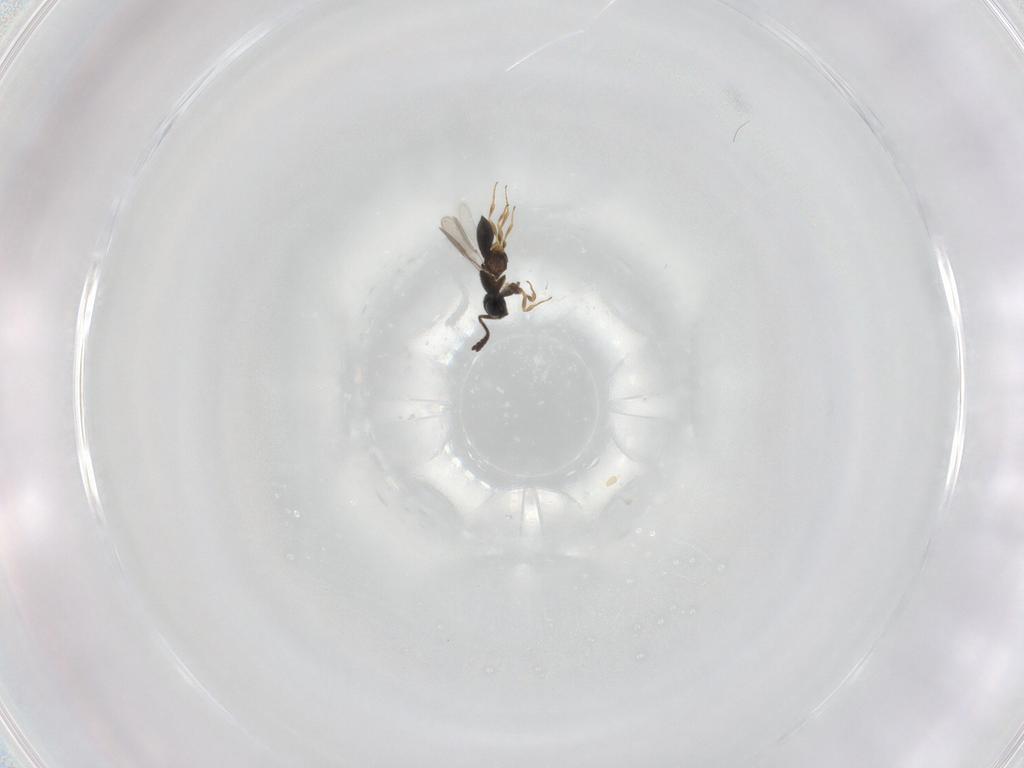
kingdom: Animalia
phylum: Arthropoda
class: Insecta
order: Hymenoptera
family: Scelionidae
